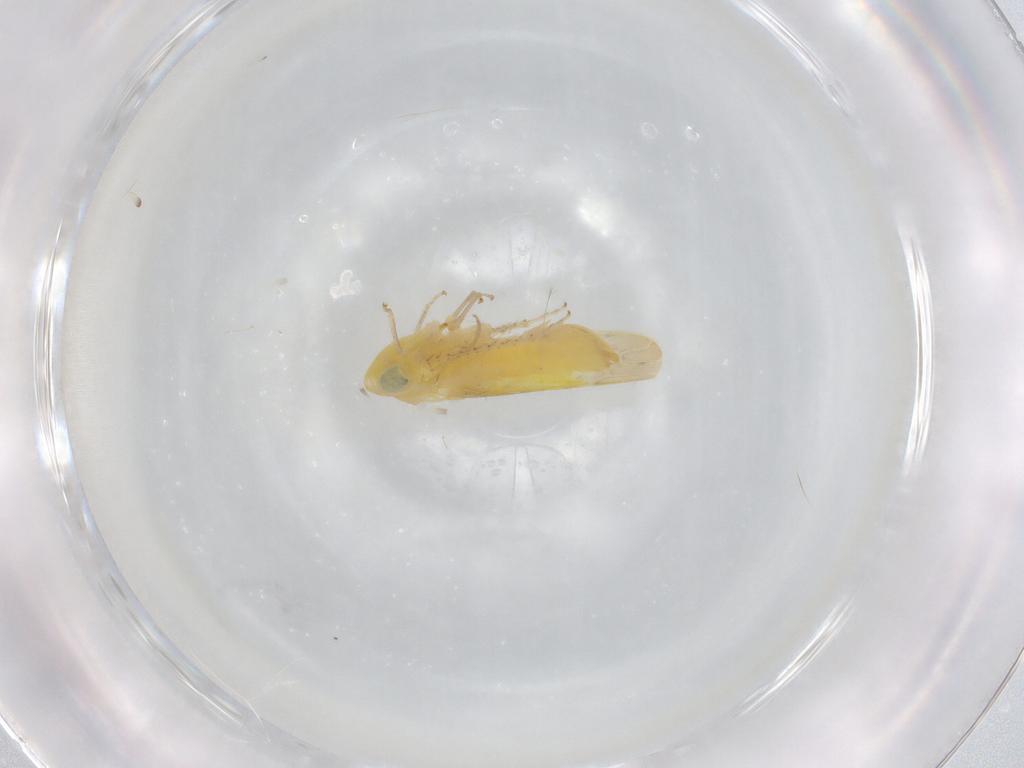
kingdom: Animalia
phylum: Arthropoda
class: Insecta
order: Hemiptera
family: Cicadellidae
